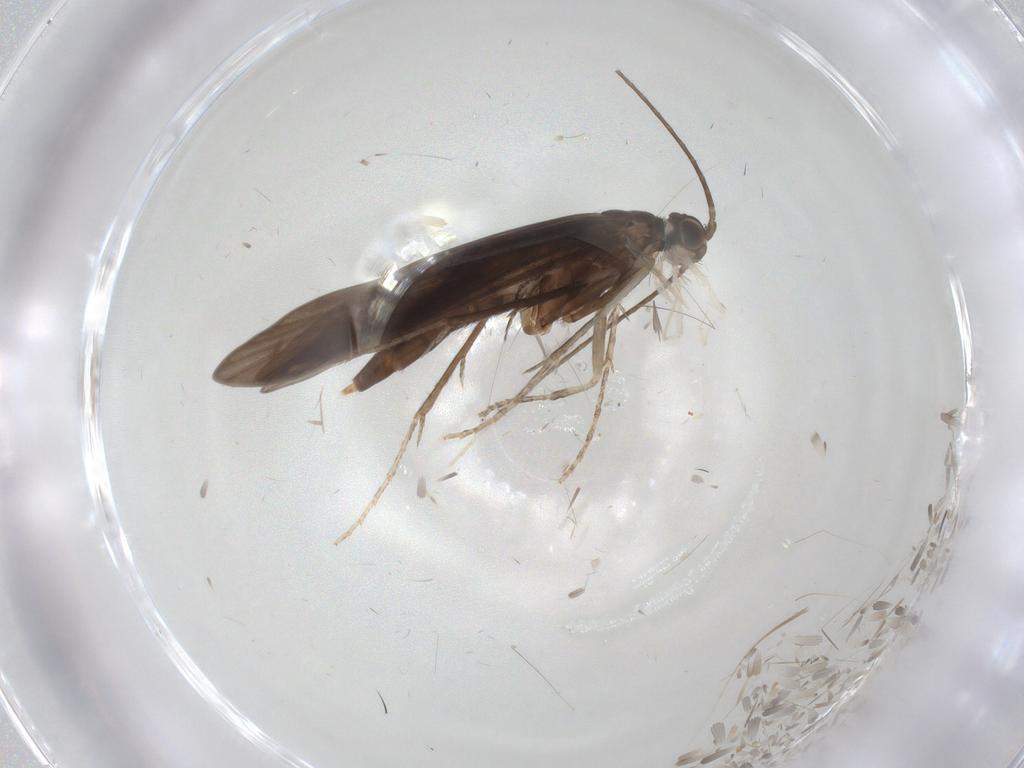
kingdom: Animalia
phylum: Arthropoda
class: Insecta
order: Trichoptera
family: Xiphocentronidae
